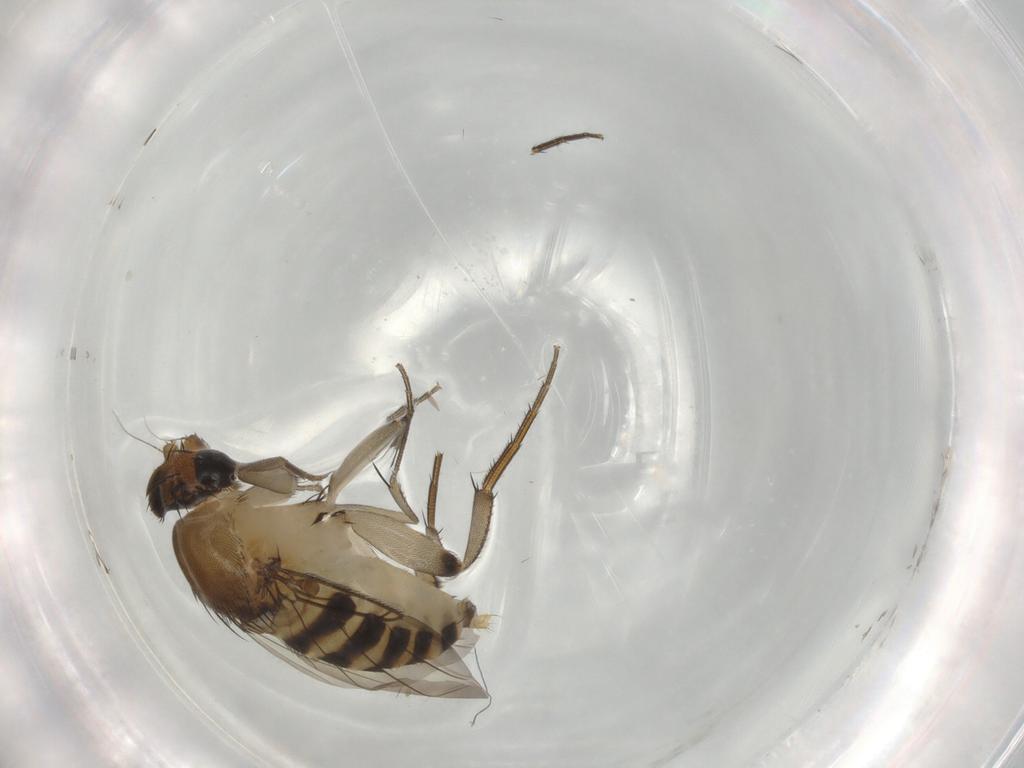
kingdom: Animalia
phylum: Arthropoda
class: Insecta
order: Diptera
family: Phoridae
